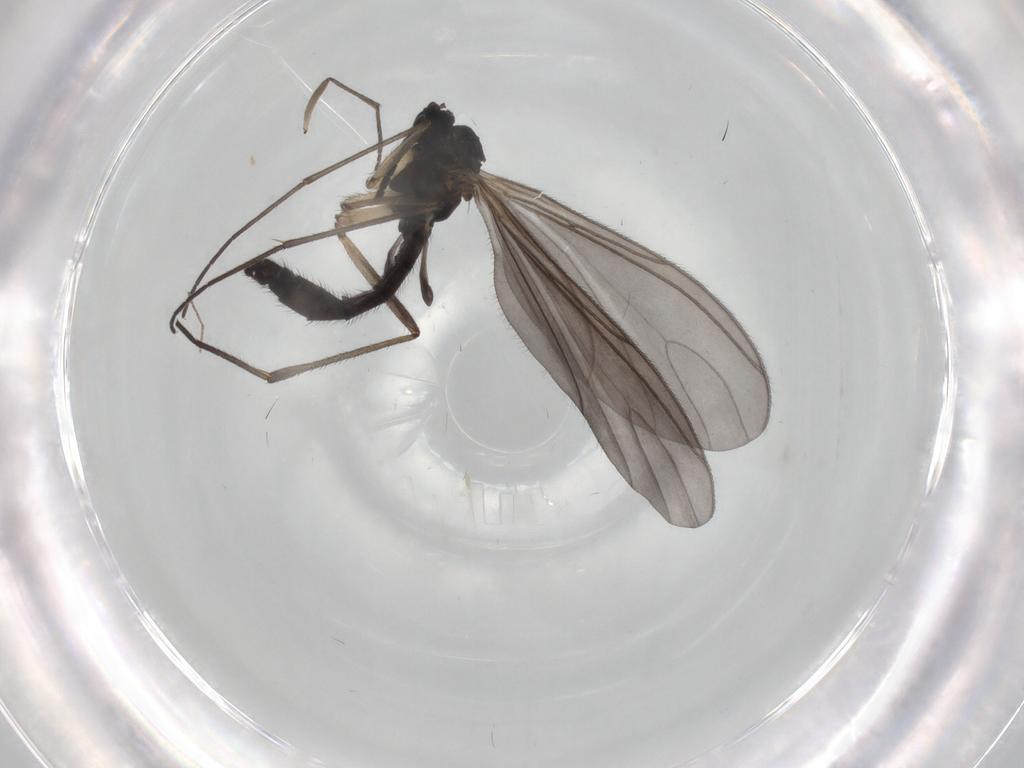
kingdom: Animalia
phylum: Arthropoda
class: Insecta
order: Diptera
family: Sciaridae
